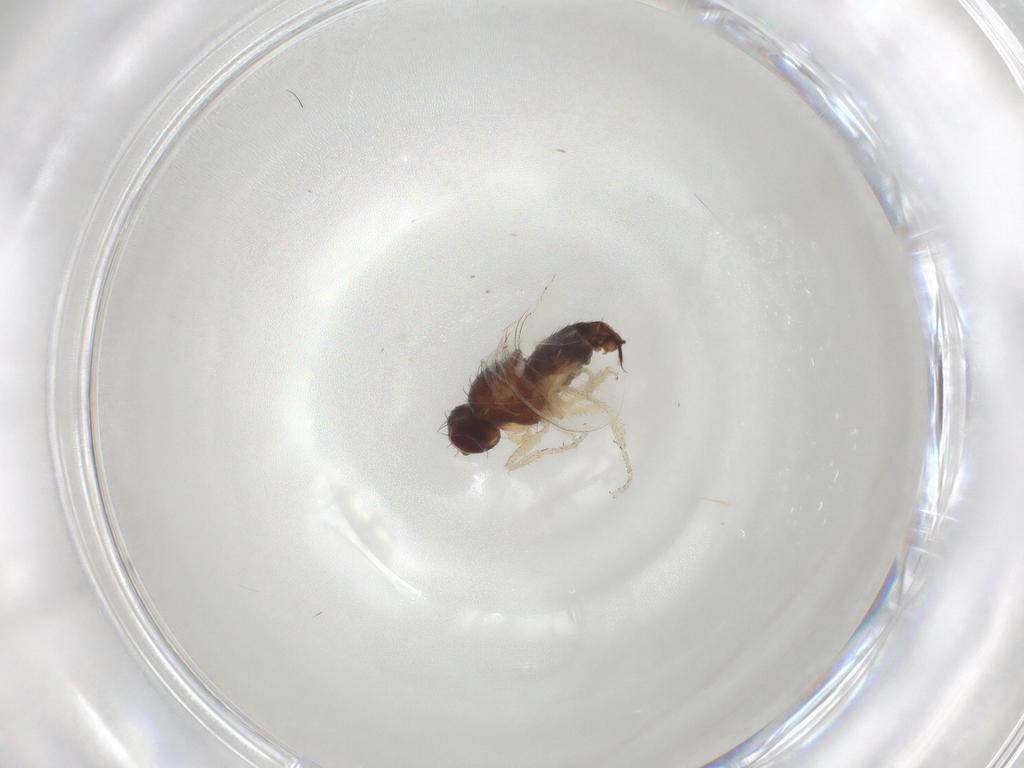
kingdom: Animalia
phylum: Arthropoda
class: Insecta
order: Diptera
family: Heleomyzidae
